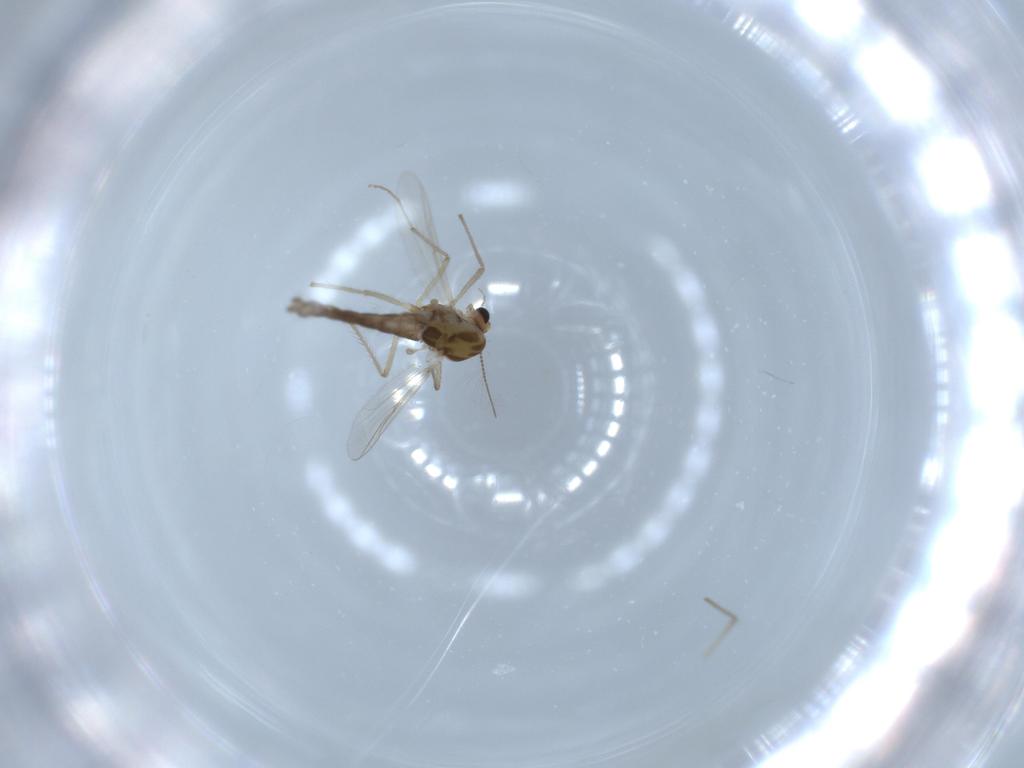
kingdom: Animalia
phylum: Arthropoda
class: Insecta
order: Diptera
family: Chironomidae
